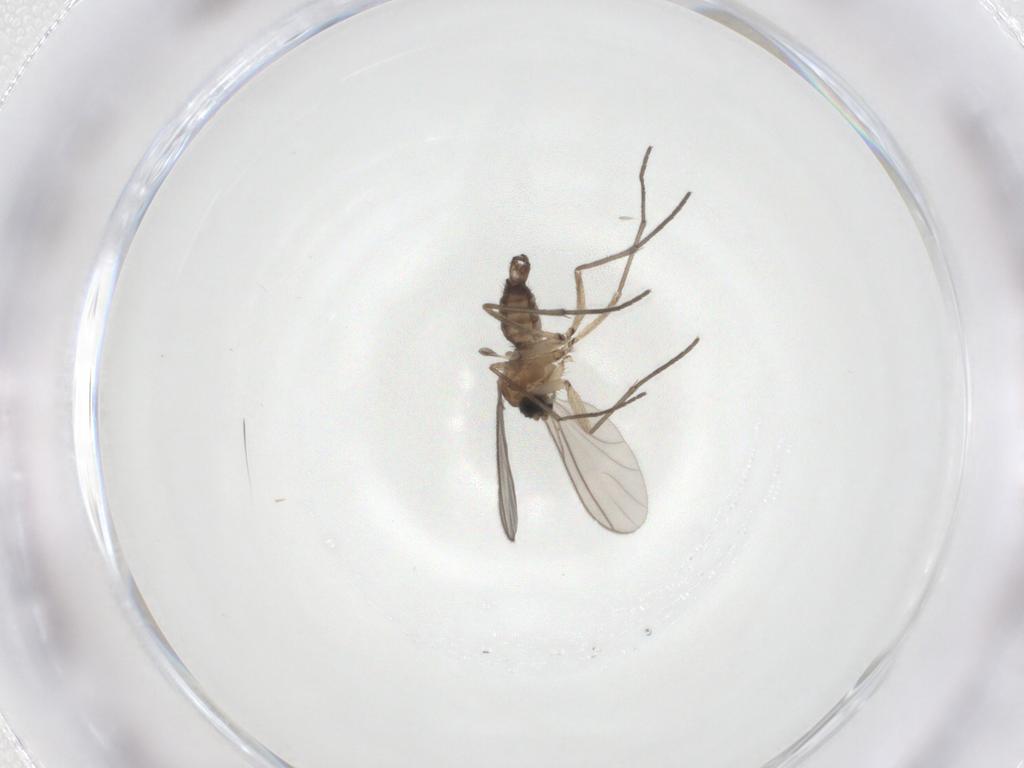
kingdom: Animalia
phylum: Arthropoda
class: Insecta
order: Diptera
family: Sciaridae
